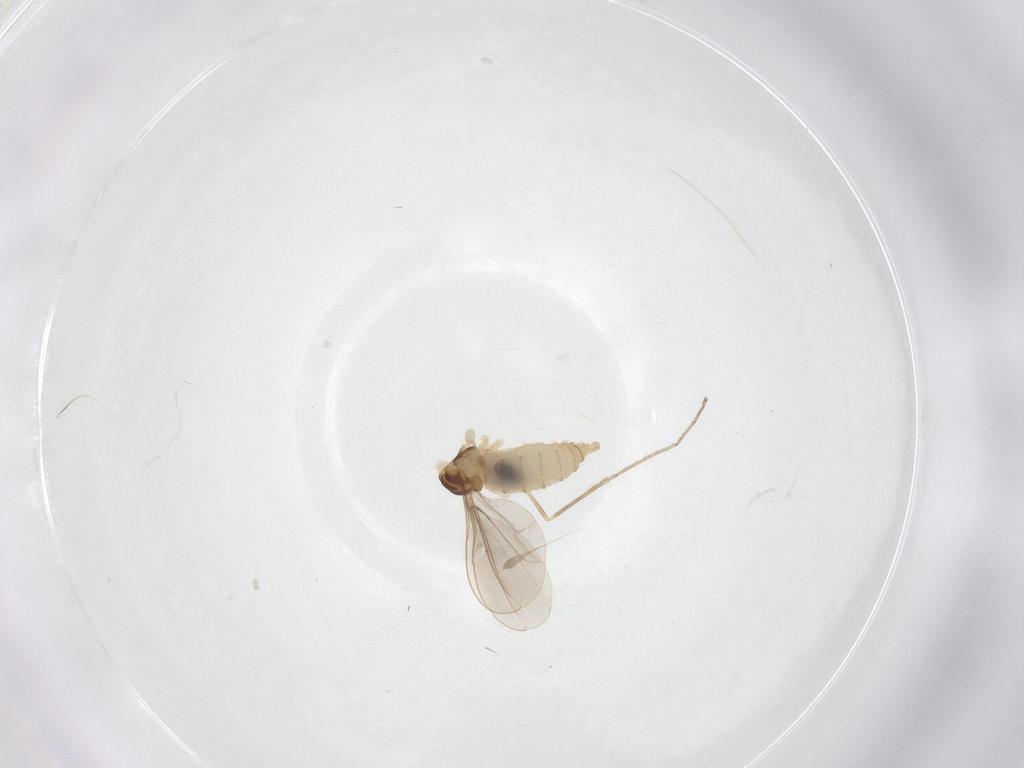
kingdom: Animalia
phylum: Arthropoda
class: Insecta
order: Diptera
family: Cecidomyiidae
